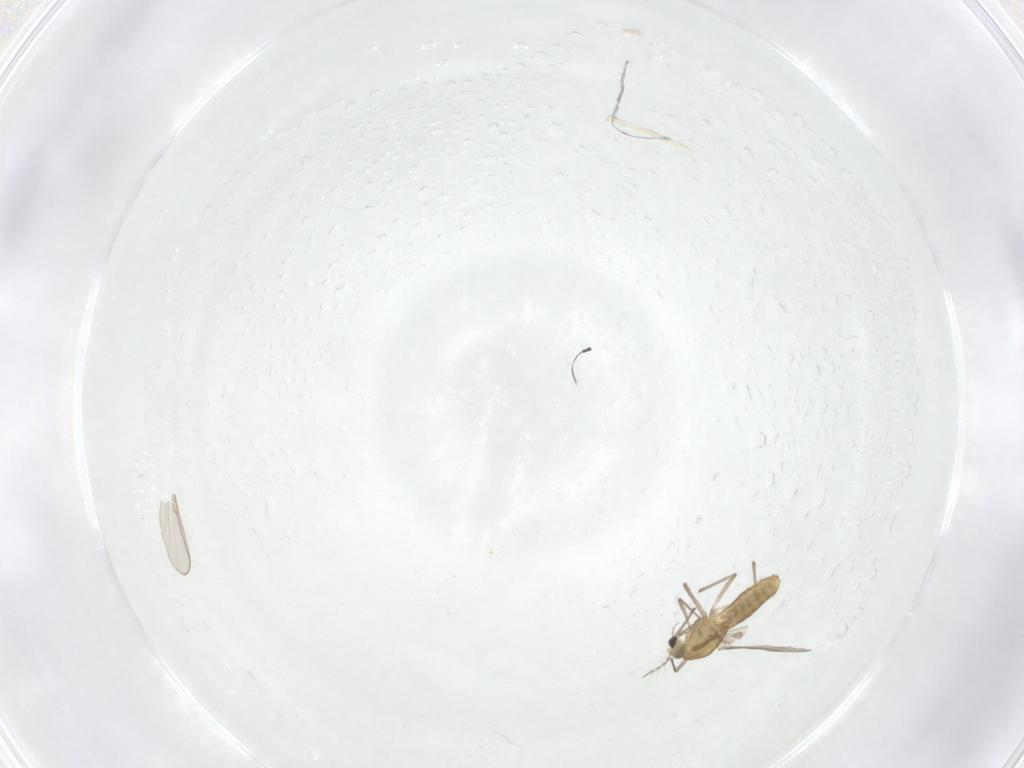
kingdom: Animalia
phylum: Arthropoda
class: Insecta
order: Diptera
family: Chironomidae
